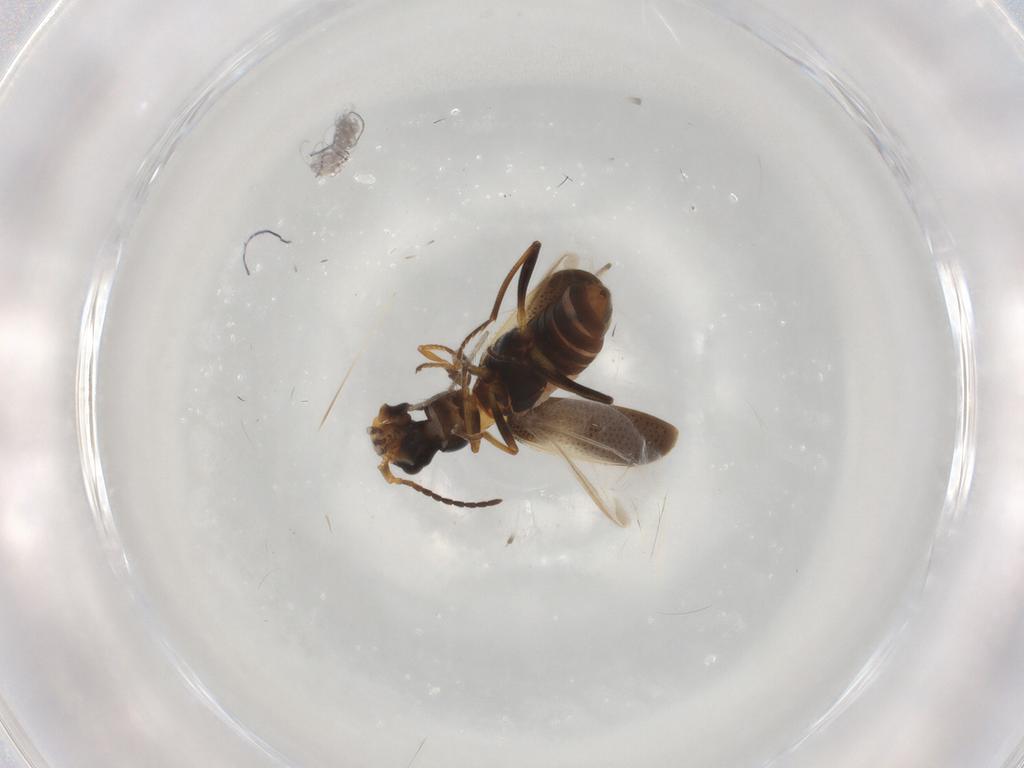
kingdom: Animalia
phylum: Arthropoda
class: Insecta
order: Coleoptera
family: Melyridae
